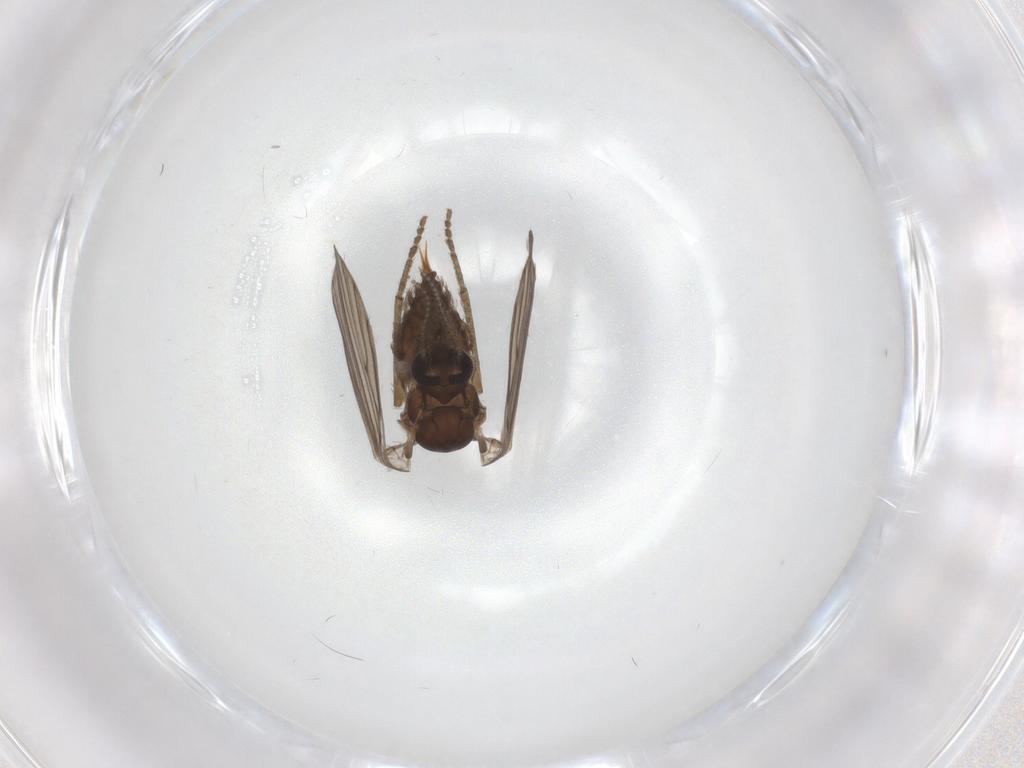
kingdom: Animalia
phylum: Arthropoda
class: Insecta
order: Diptera
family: Psychodidae
